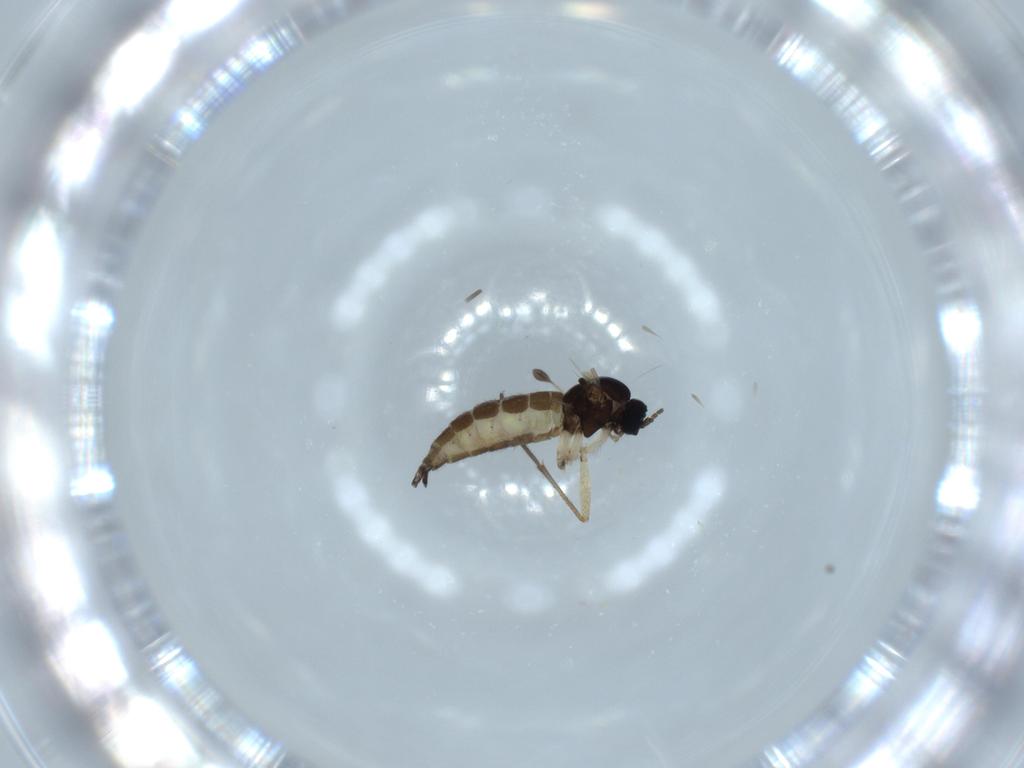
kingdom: Animalia
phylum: Arthropoda
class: Insecta
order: Diptera
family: Sciaridae
